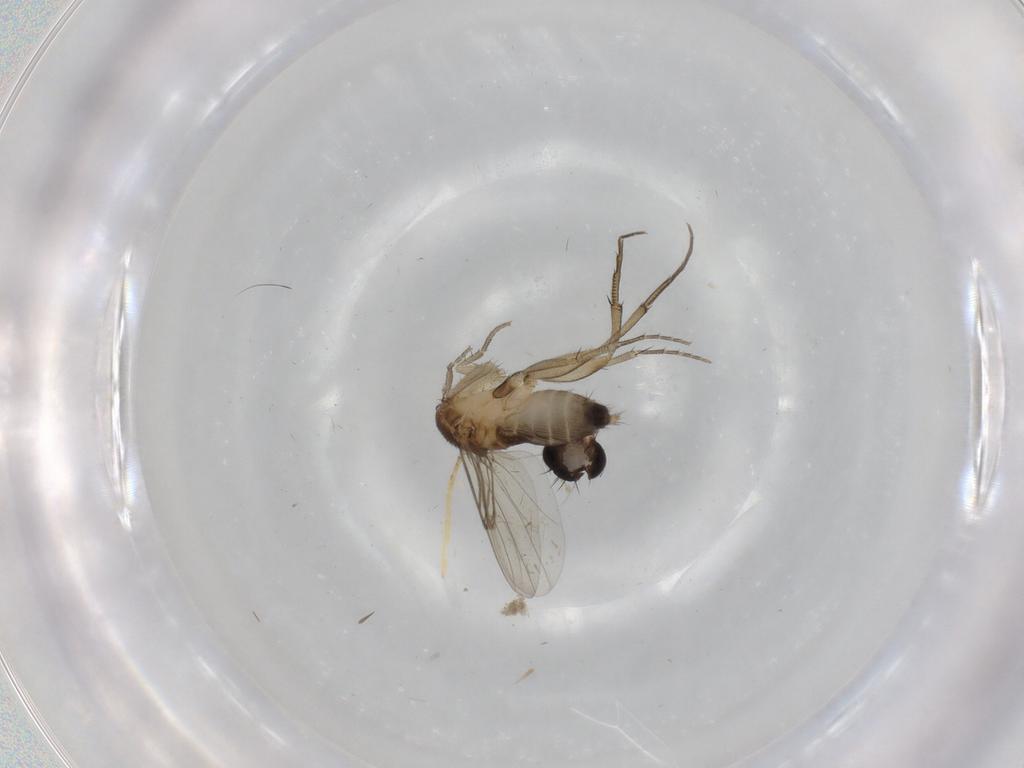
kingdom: Animalia
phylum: Arthropoda
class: Insecta
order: Diptera
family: Phoridae
